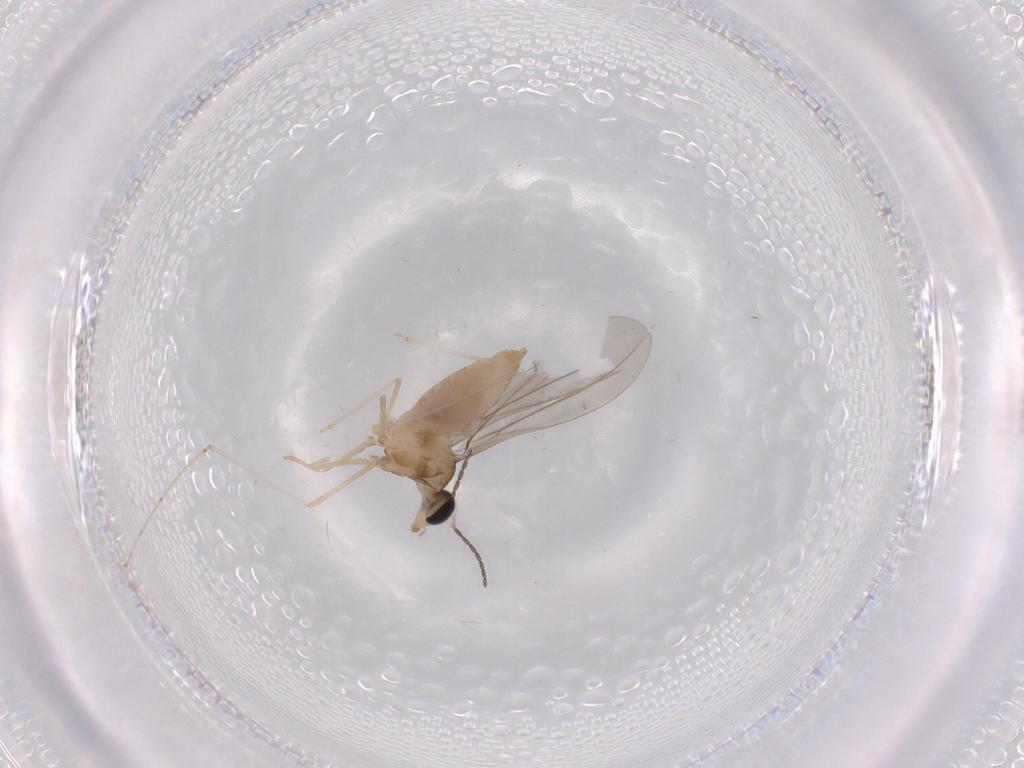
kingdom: Animalia
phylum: Arthropoda
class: Insecta
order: Diptera
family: Cecidomyiidae
